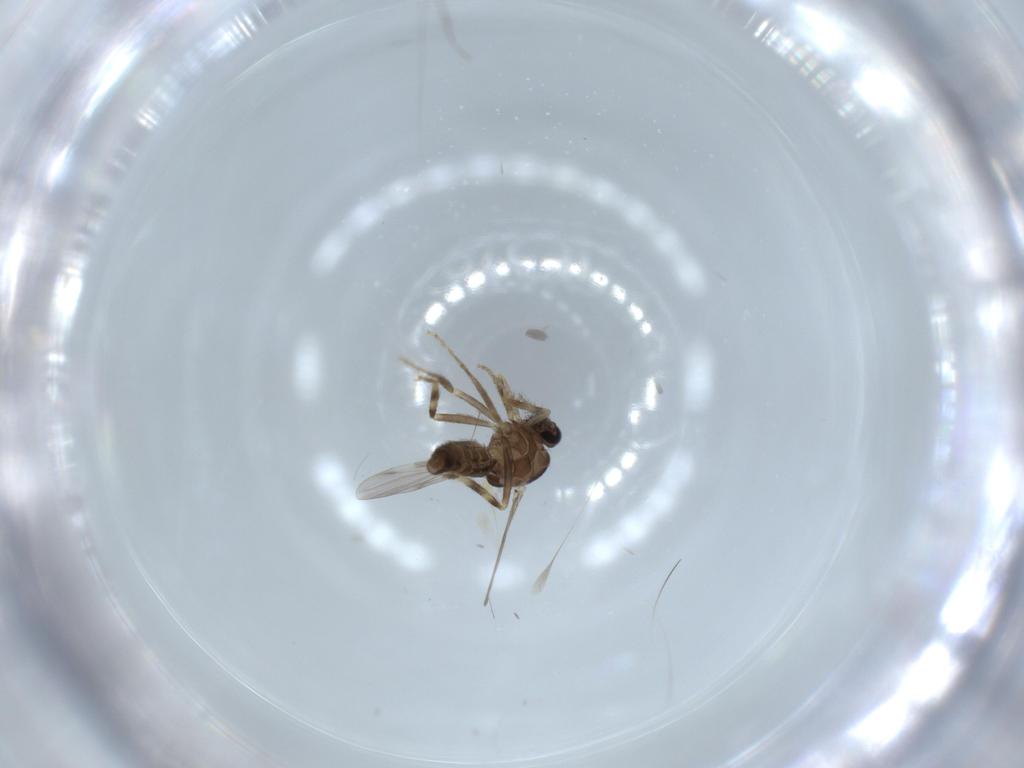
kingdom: Animalia
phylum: Arthropoda
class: Insecta
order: Diptera
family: Ceratopogonidae
